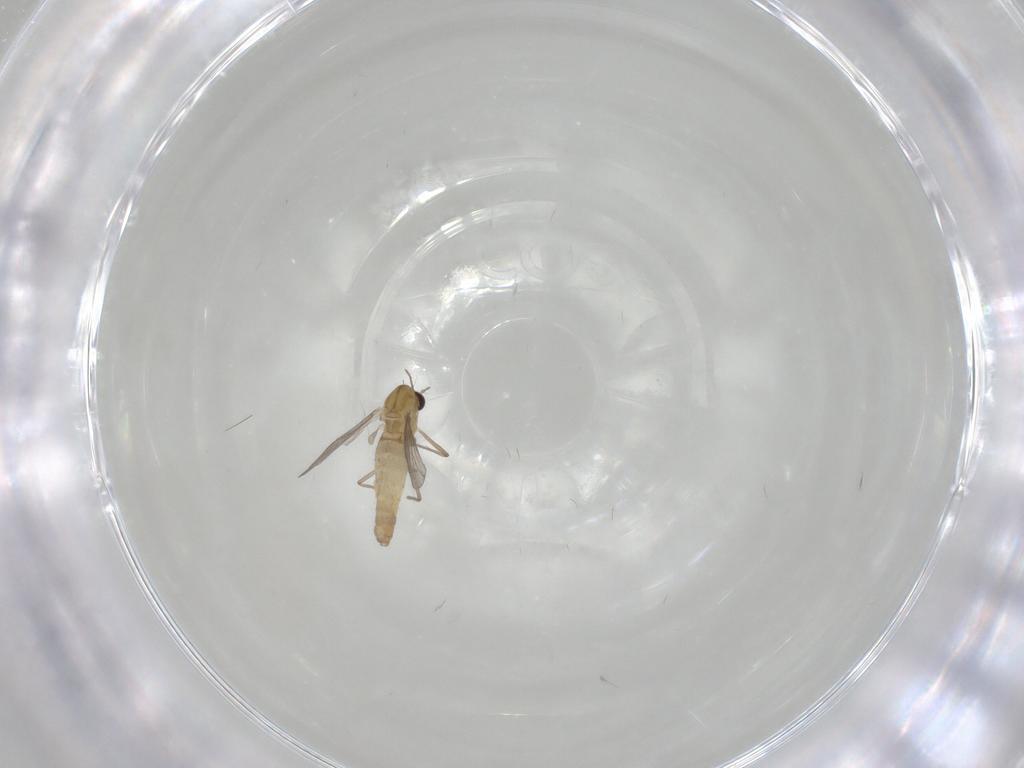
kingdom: Animalia
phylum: Arthropoda
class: Insecta
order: Diptera
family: Chironomidae
